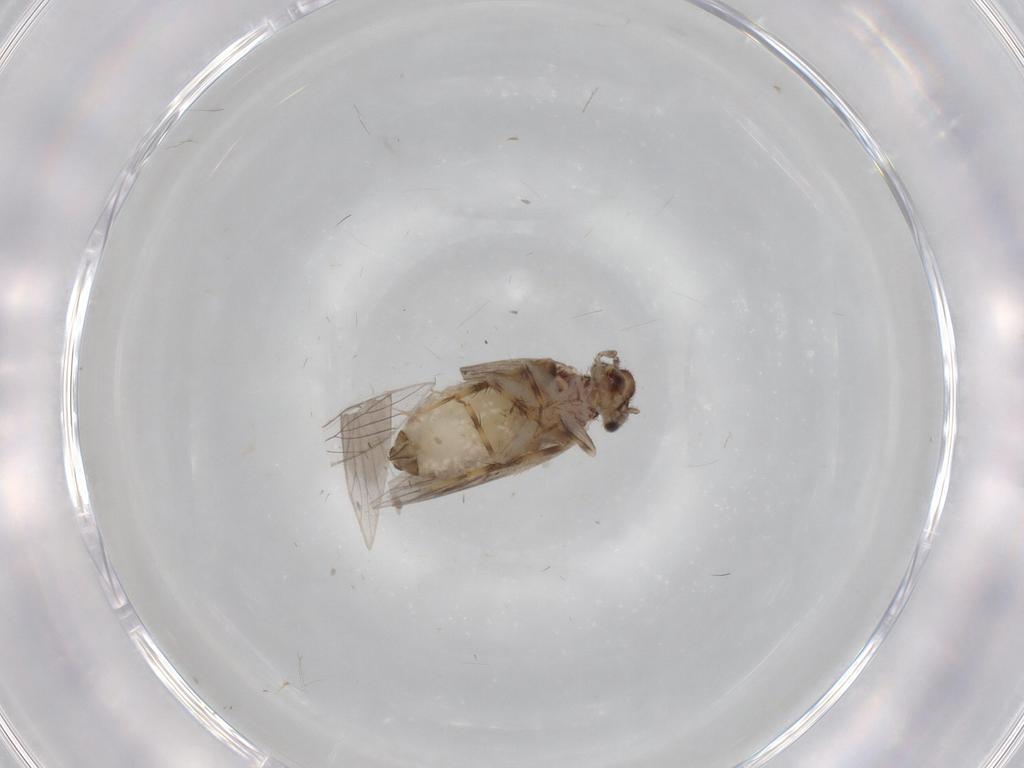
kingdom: Animalia
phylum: Arthropoda
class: Insecta
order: Psocodea
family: Lepidopsocidae
